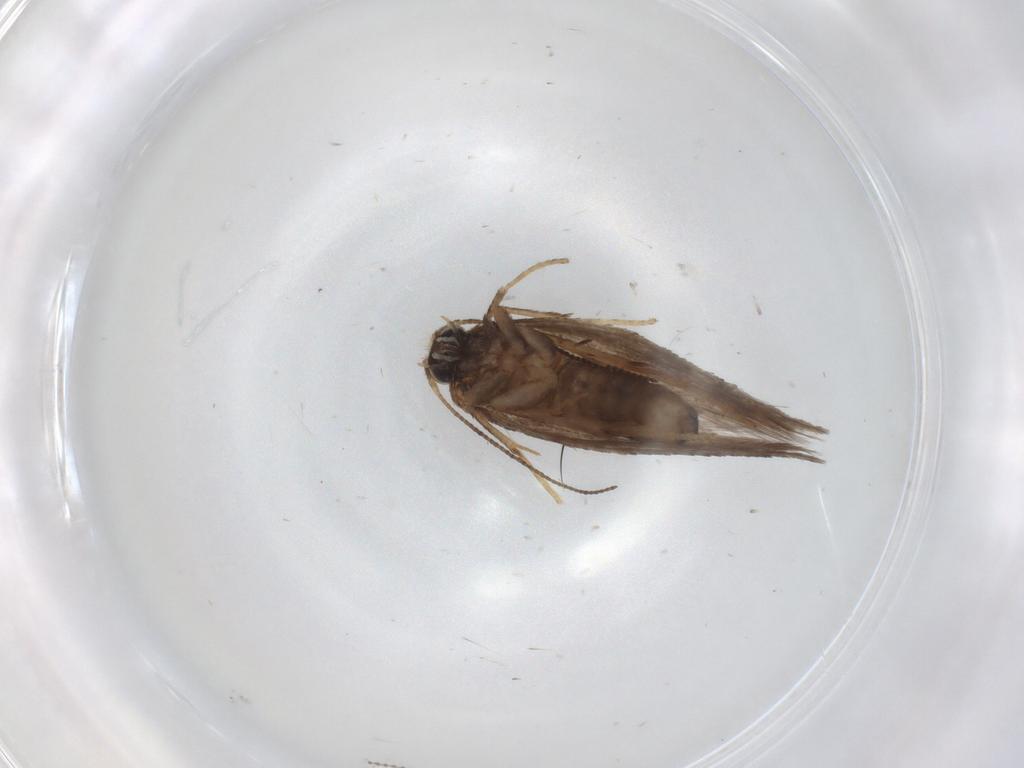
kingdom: Animalia
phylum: Arthropoda
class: Insecta
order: Lepidoptera
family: Nepticulidae
